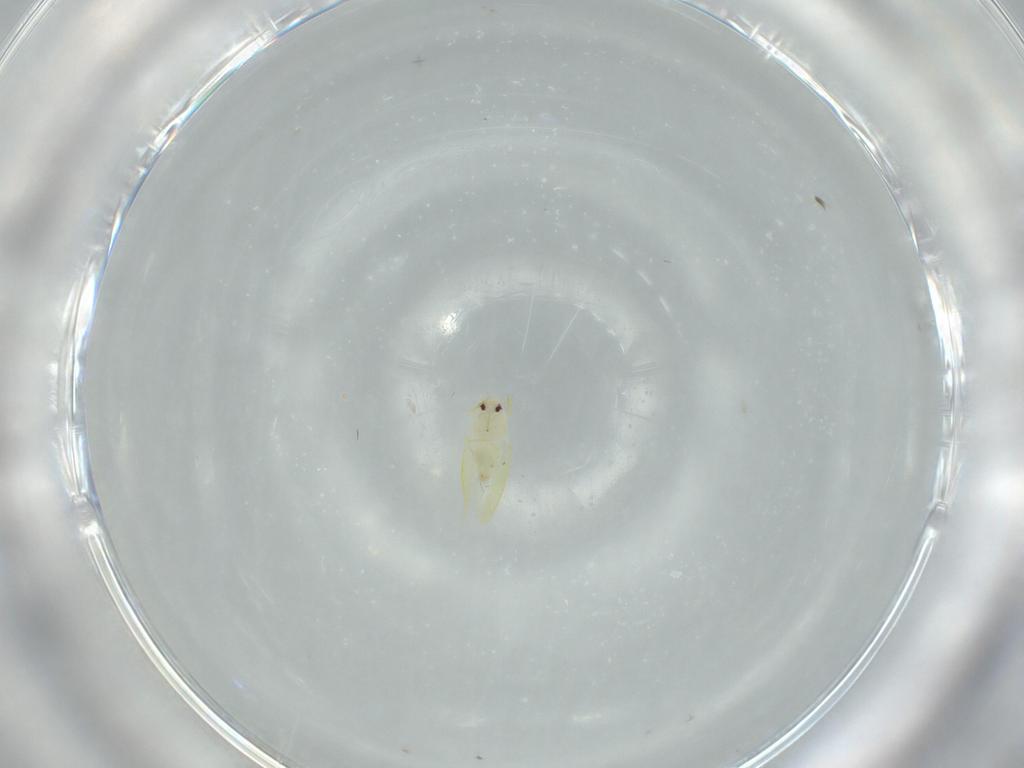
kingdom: Animalia
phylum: Arthropoda
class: Insecta
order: Hemiptera
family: Aleyrodidae
